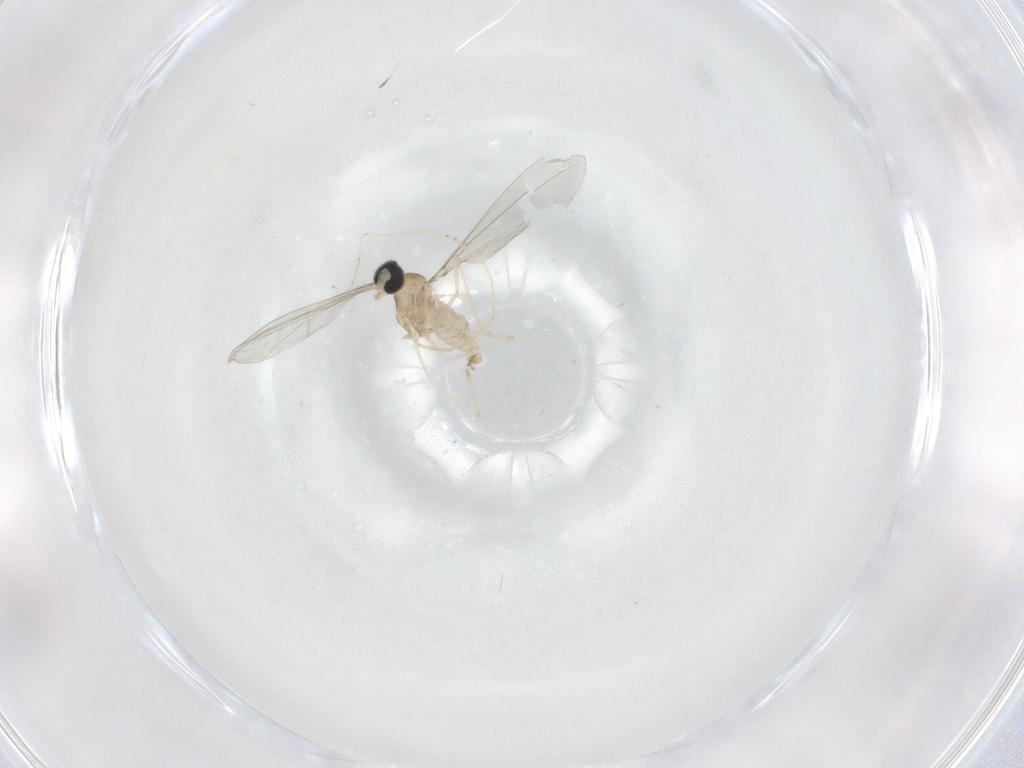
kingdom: Animalia
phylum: Arthropoda
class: Insecta
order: Diptera
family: Cecidomyiidae
